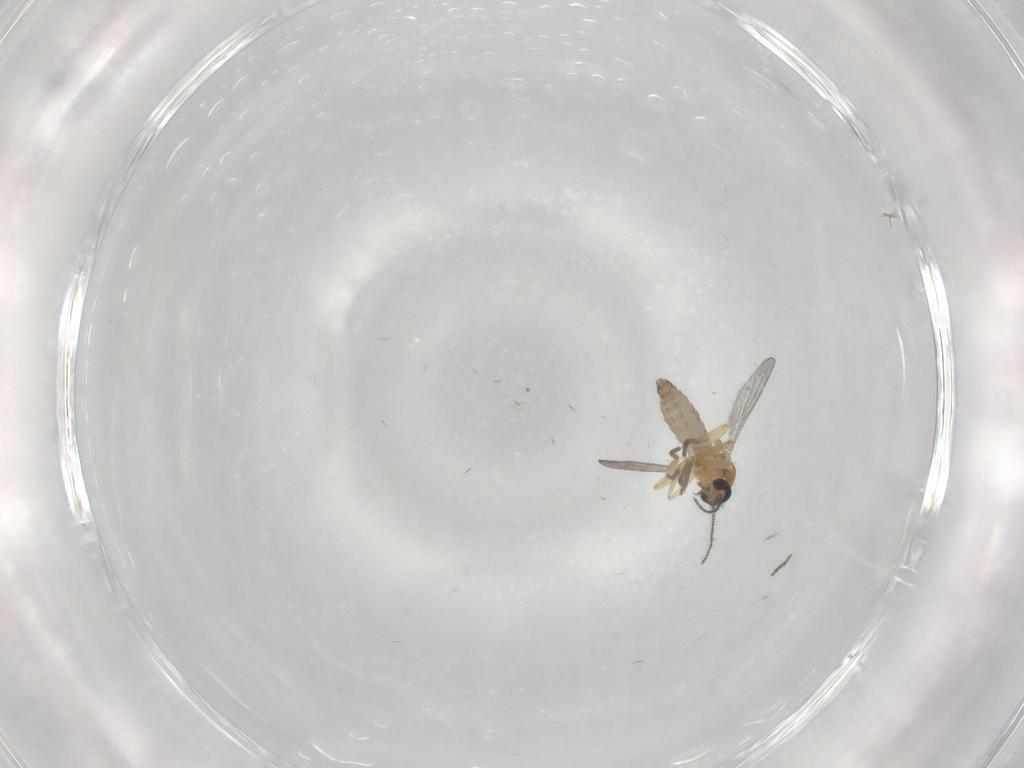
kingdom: Animalia
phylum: Arthropoda
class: Insecta
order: Diptera
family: Ceratopogonidae
